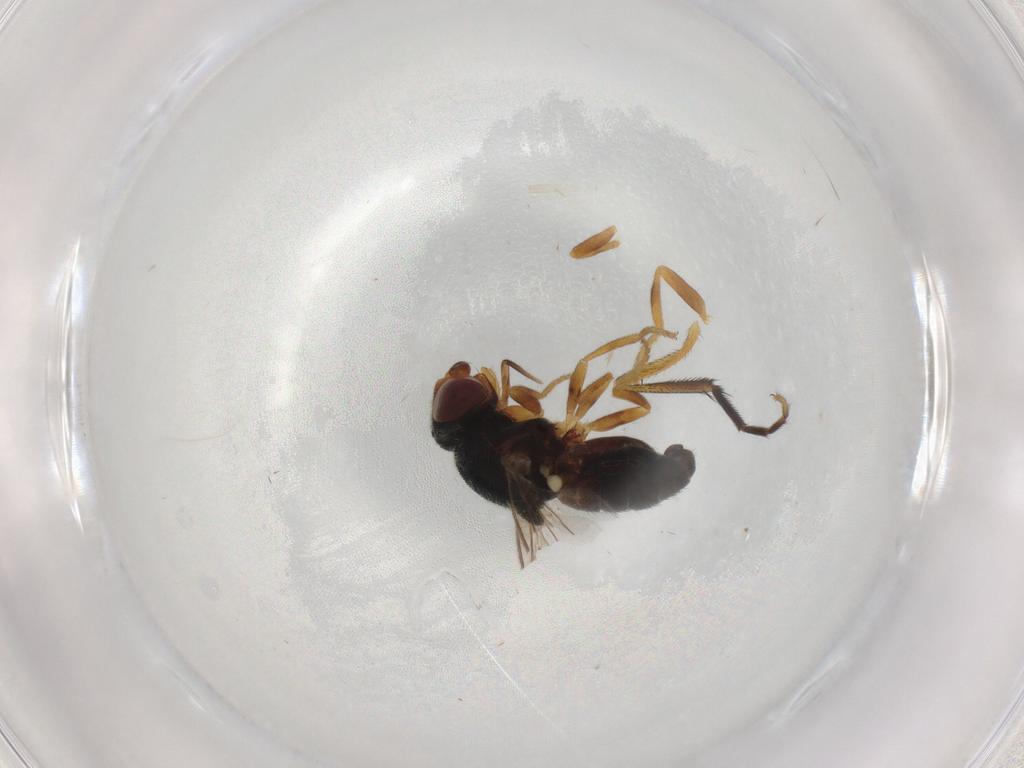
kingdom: Animalia
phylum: Arthropoda
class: Insecta
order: Diptera
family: Chloropidae
